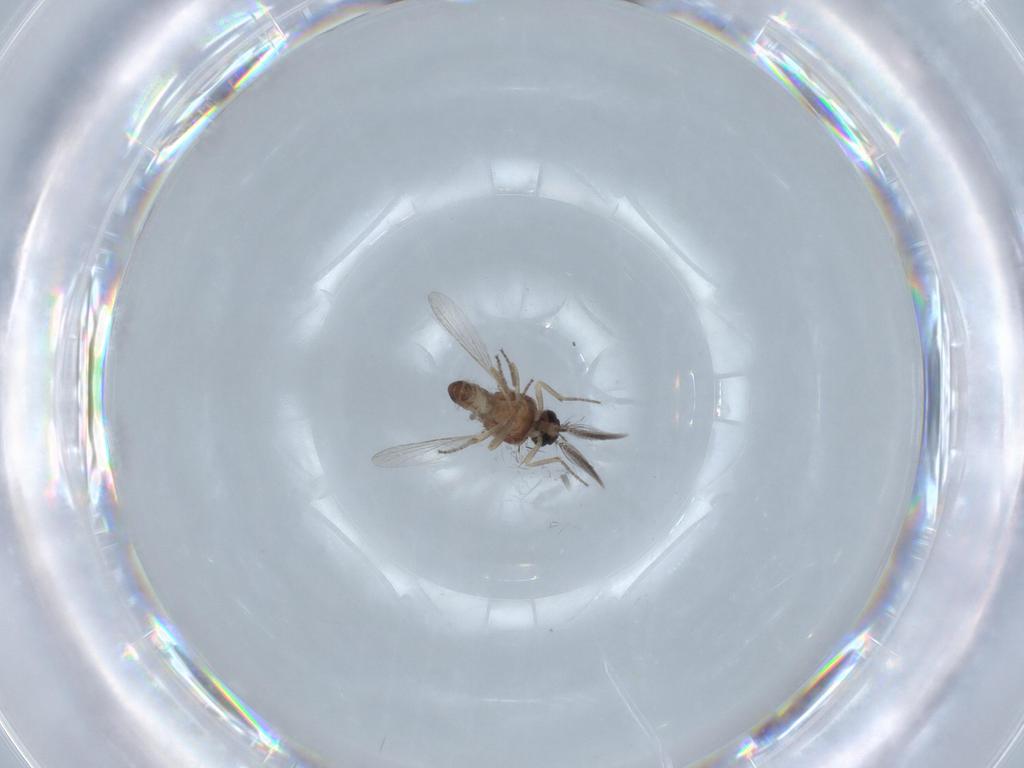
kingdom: Animalia
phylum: Arthropoda
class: Insecta
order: Diptera
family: Ceratopogonidae
